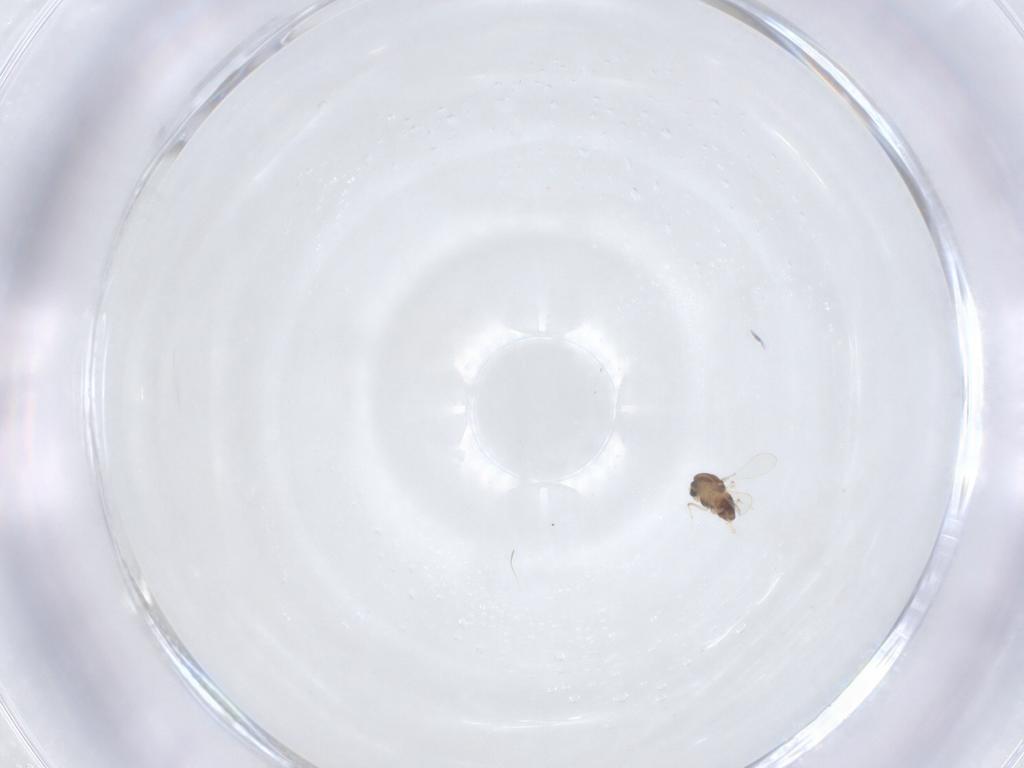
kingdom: Animalia
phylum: Arthropoda
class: Insecta
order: Diptera
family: Chironomidae
